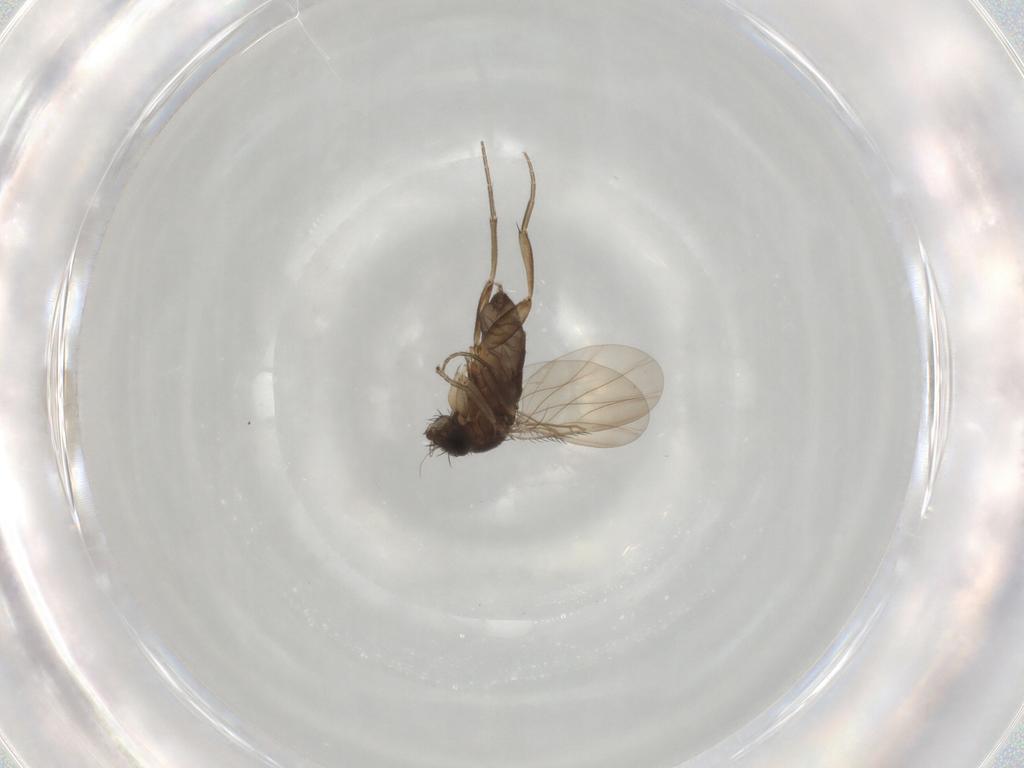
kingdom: Animalia
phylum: Arthropoda
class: Insecta
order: Diptera
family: Phoridae
